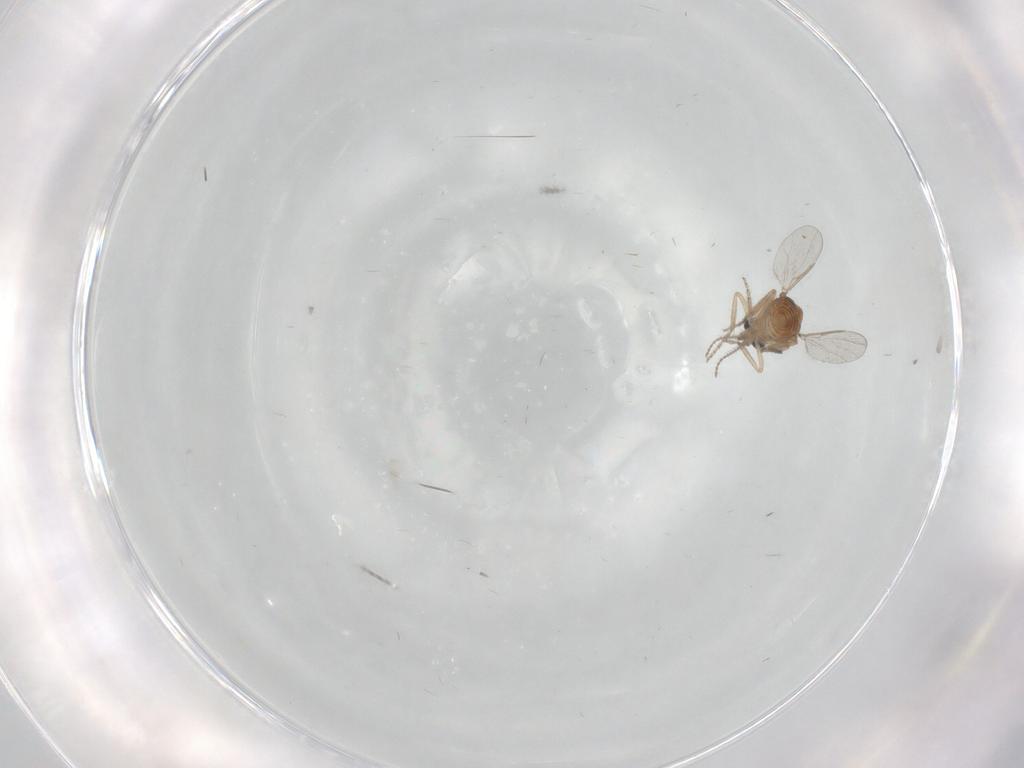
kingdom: Animalia
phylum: Arthropoda
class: Insecta
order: Diptera
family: Ceratopogonidae
